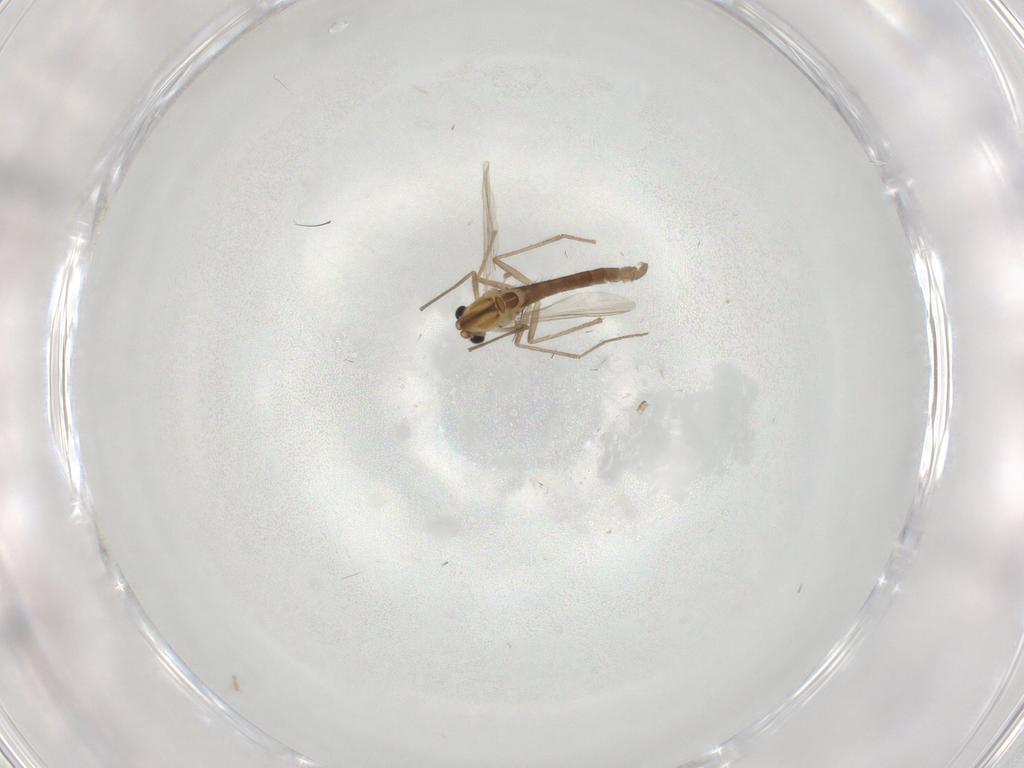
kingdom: Animalia
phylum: Arthropoda
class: Insecta
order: Diptera
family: Chironomidae
